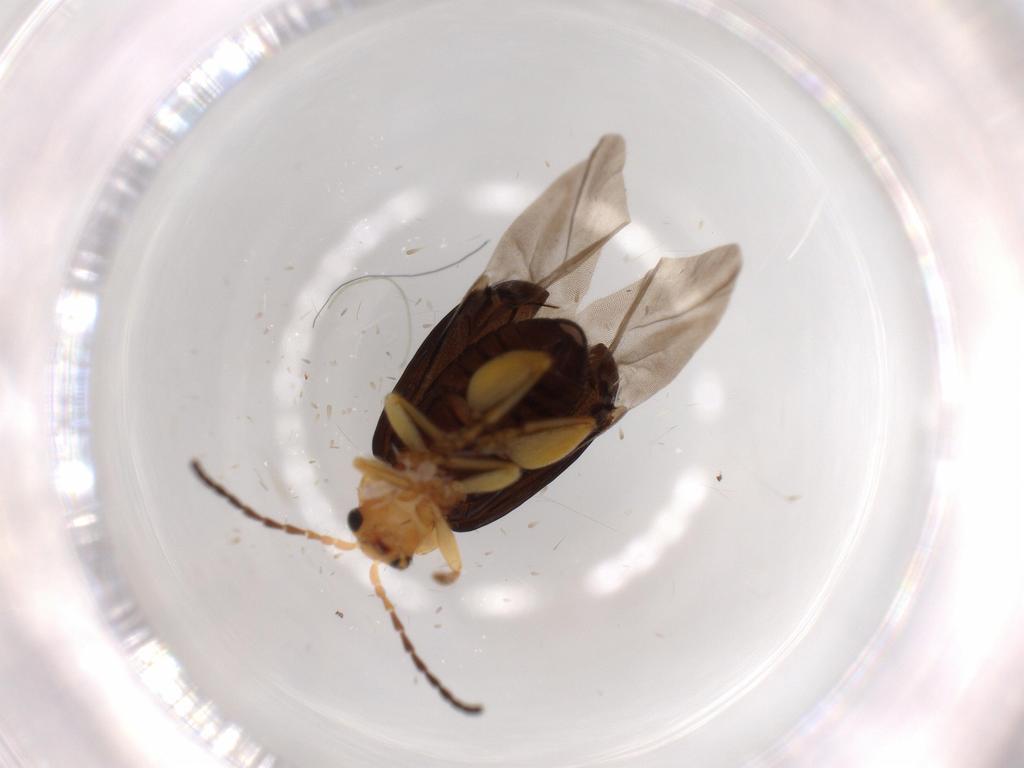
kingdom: Animalia
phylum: Arthropoda
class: Insecta
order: Coleoptera
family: Chrysomelidae
